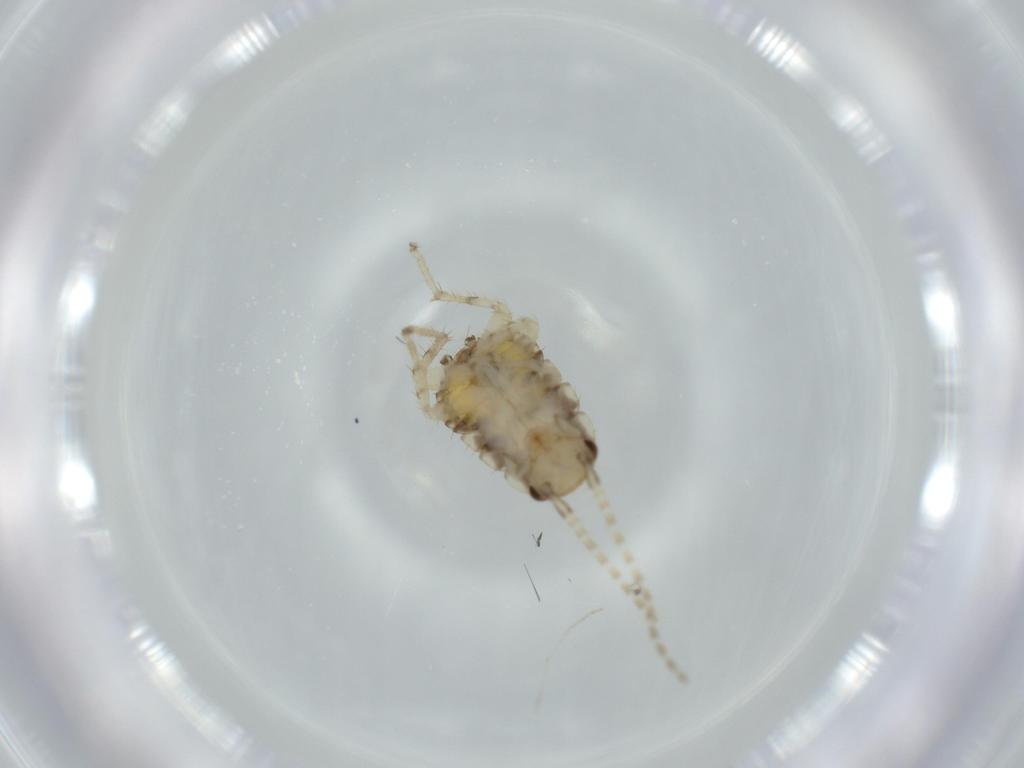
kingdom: Animalia
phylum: Arthropoda
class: Insecta
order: Blattodea
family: Ectobiidae
